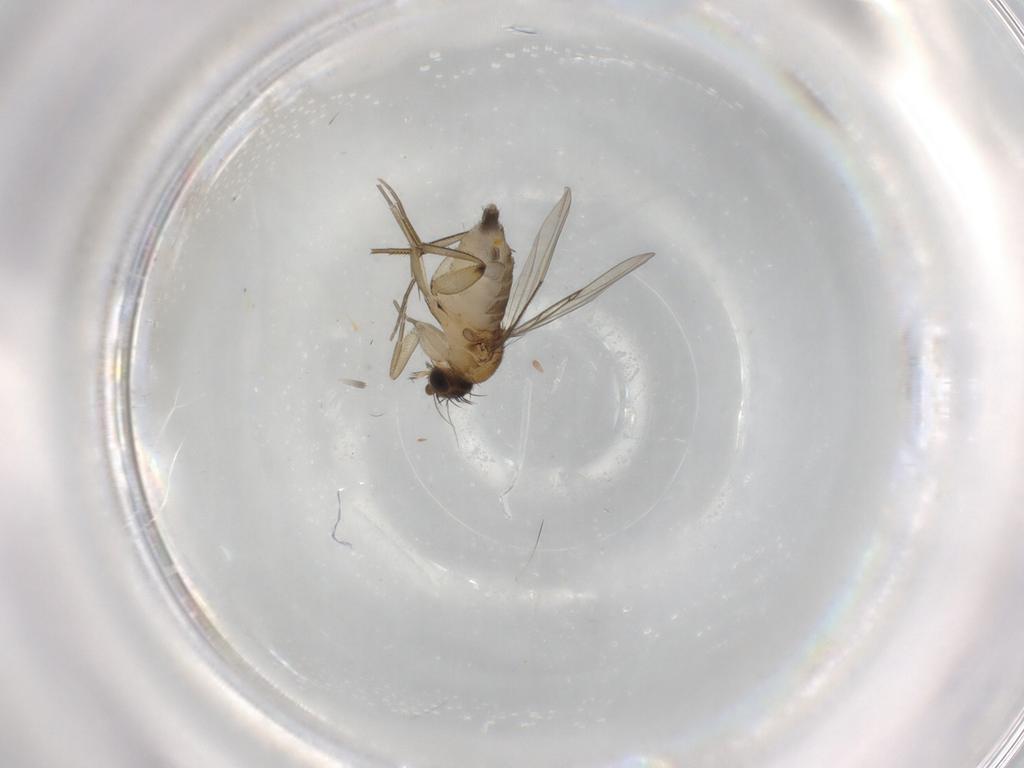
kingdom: Animalia
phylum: Arthropoda
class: Insecta
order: Diptera
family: Phoridae
